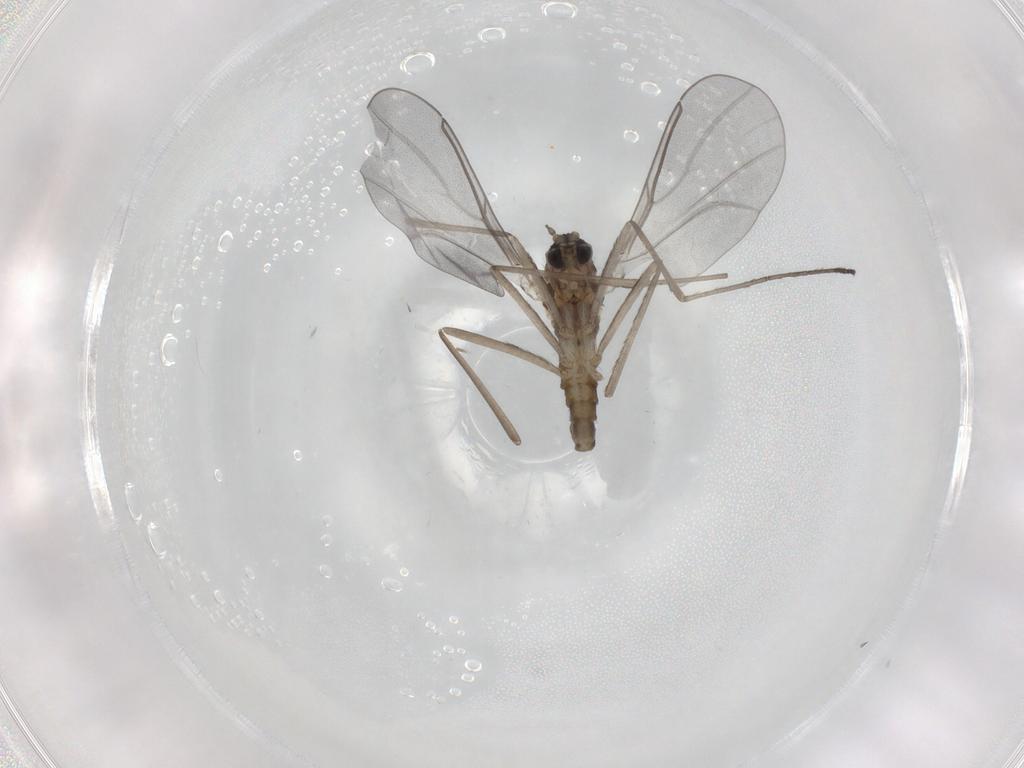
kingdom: Animalia
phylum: Arthropoda
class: Insecta
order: Diptera
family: Cecidomyiidae
